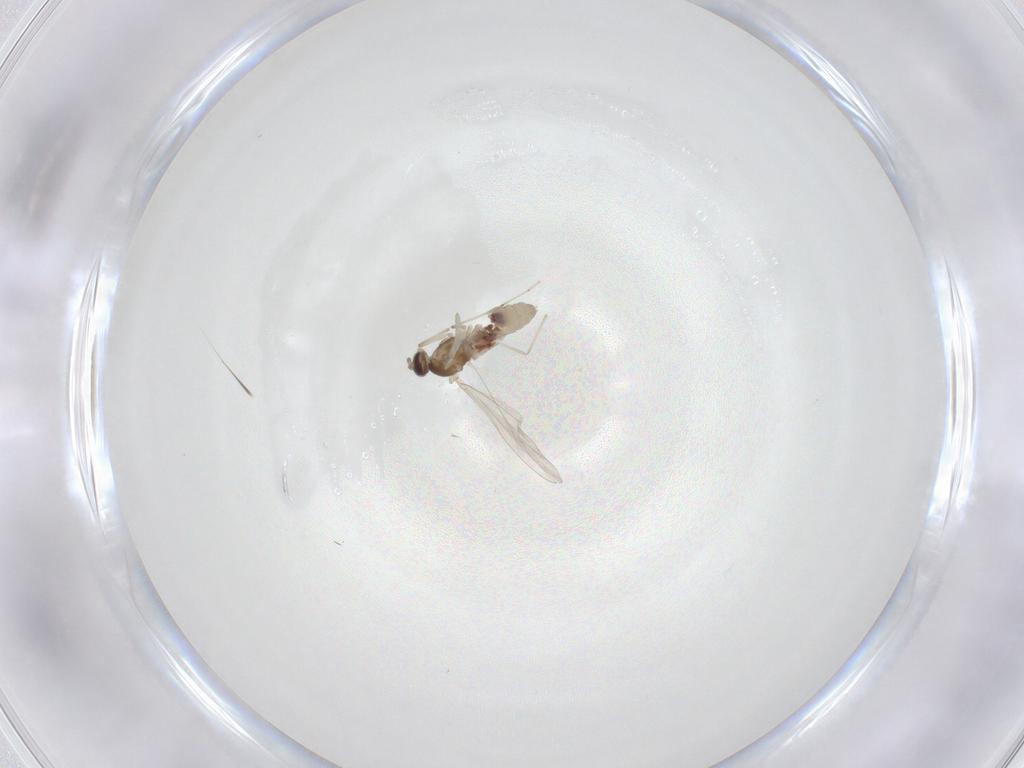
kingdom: Animalia
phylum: Arthropoda
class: Insecta
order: Diptera
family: Cecidomyiidae
